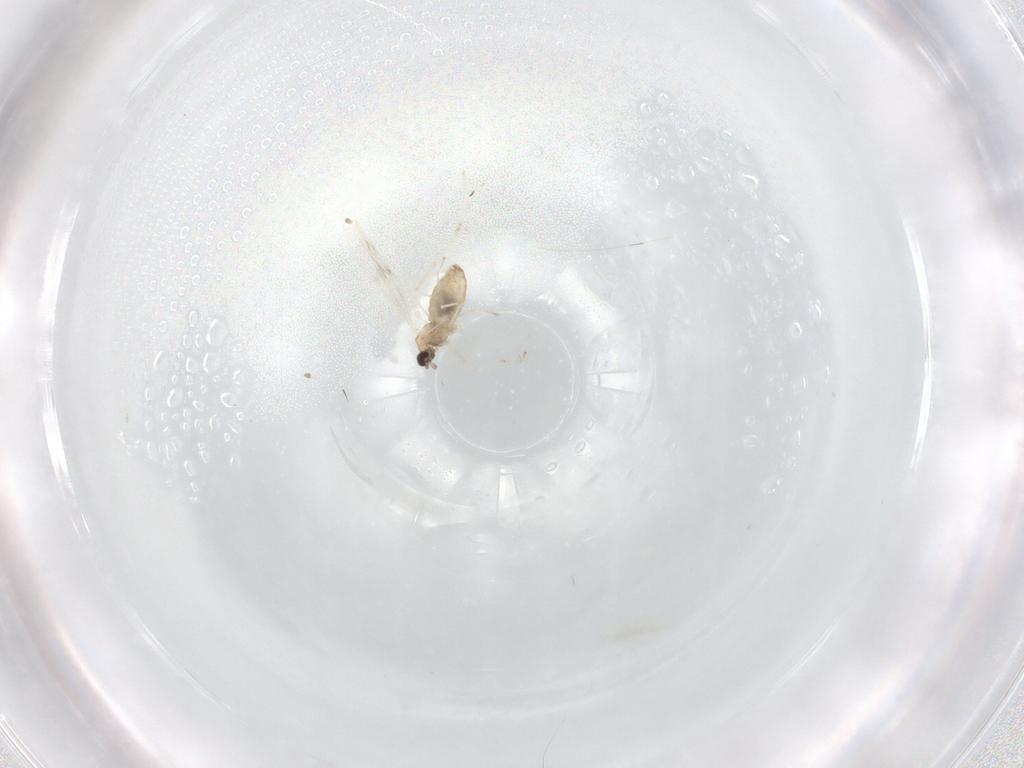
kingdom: Animalia
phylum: Arthropoda
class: Insecta
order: Diptera
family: Cecidomyiidae
